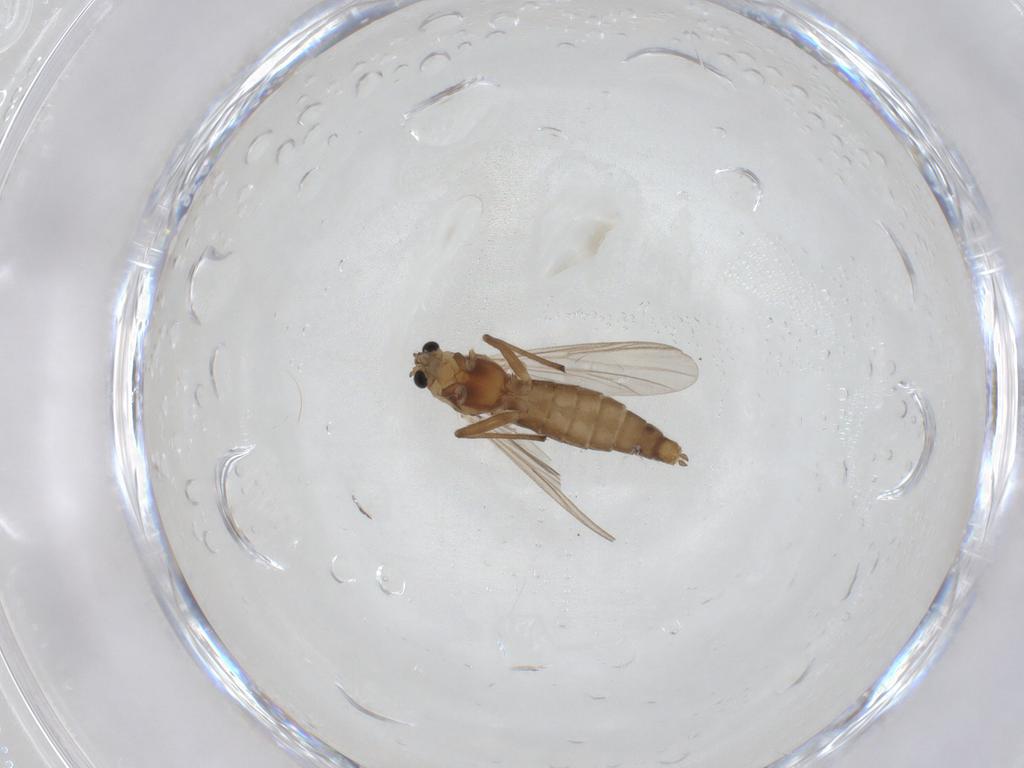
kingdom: Animalia
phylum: Arthropoda
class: Insecta
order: Diptera
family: Chironomidae
